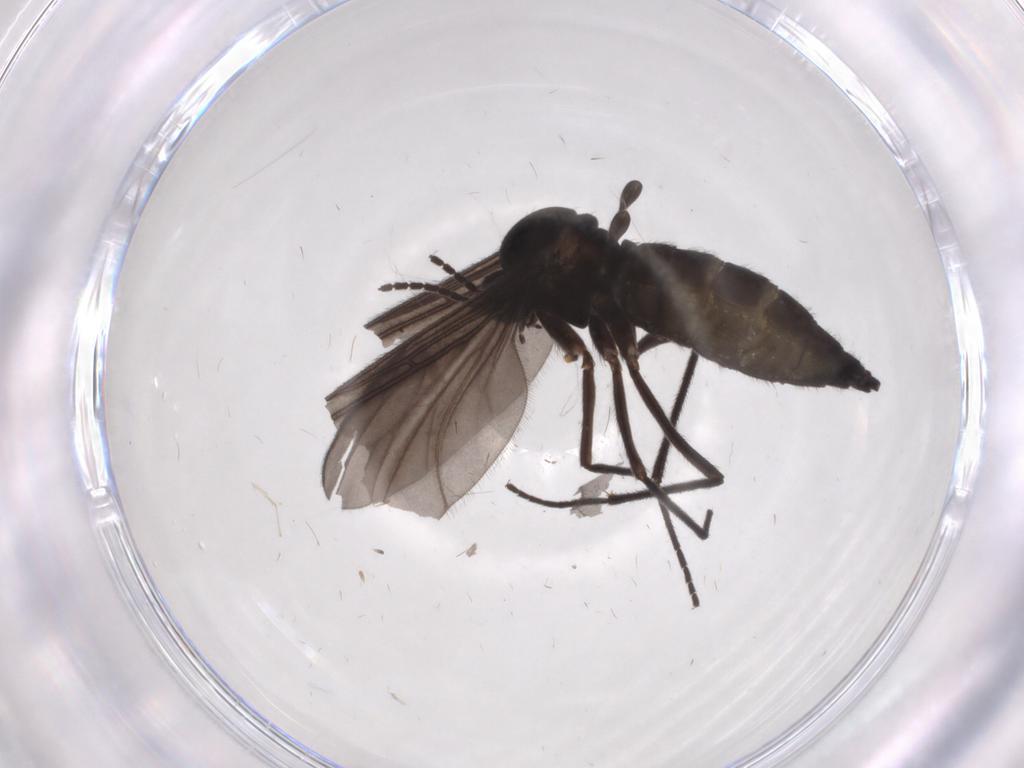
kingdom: Animalia
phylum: Arthropoda
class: Insecta
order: Diptera
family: Sciaridae
